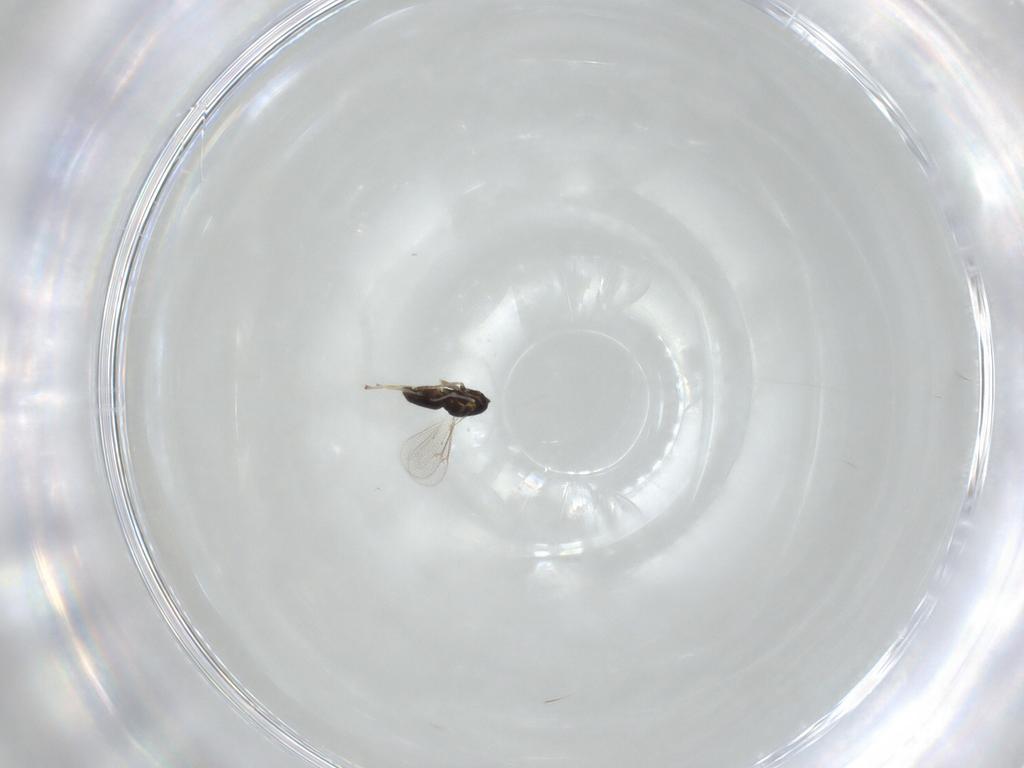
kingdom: Animalia
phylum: Arthropoda
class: Insecta
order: Hymenoptera
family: Eulophidae
